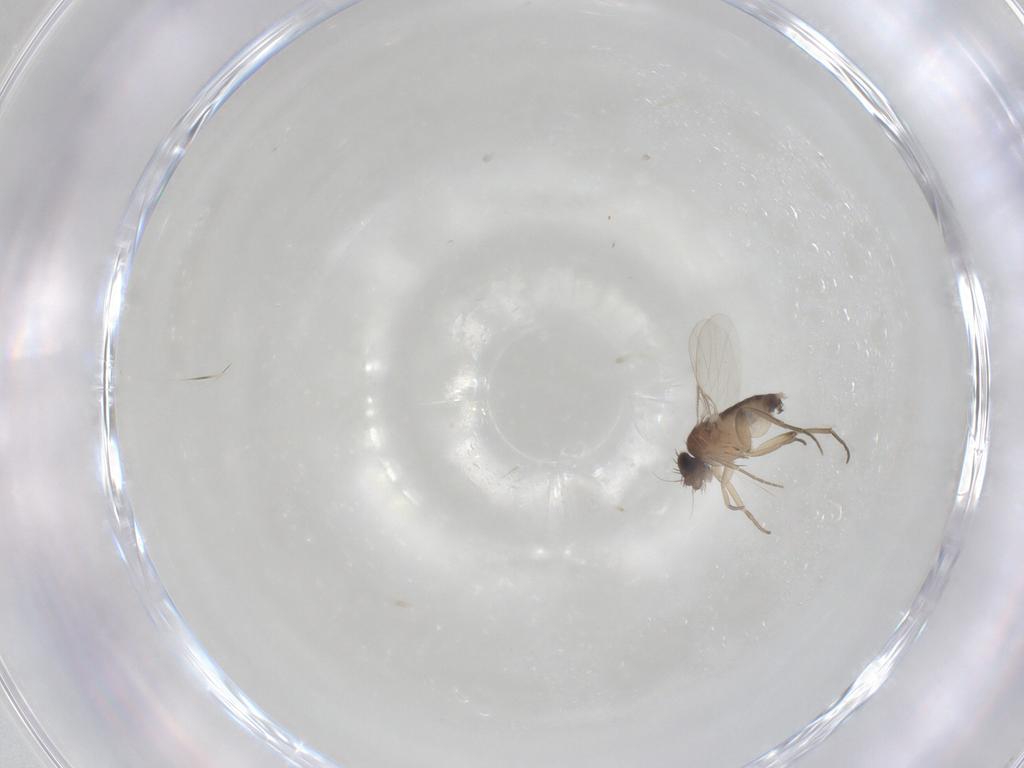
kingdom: Animalia
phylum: Arthropoda
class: Insecta
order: Diptera
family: Phoridae
